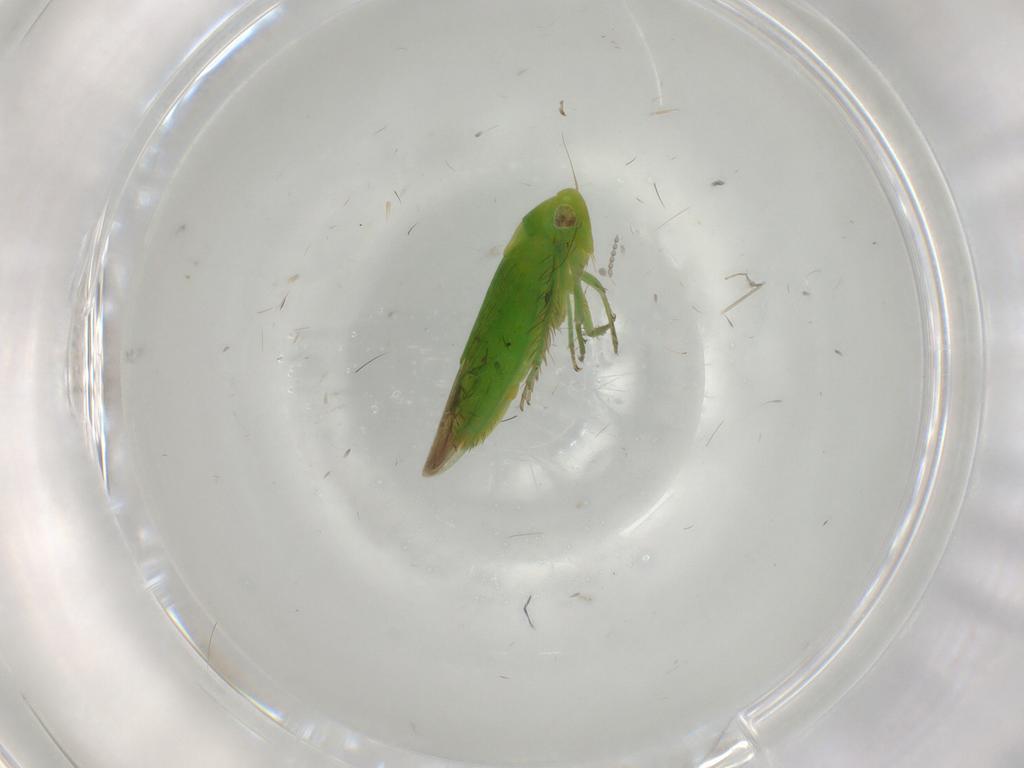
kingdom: Animalia
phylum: Arthropoda
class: Insecta
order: Hemiptera
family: Cicadellidae
